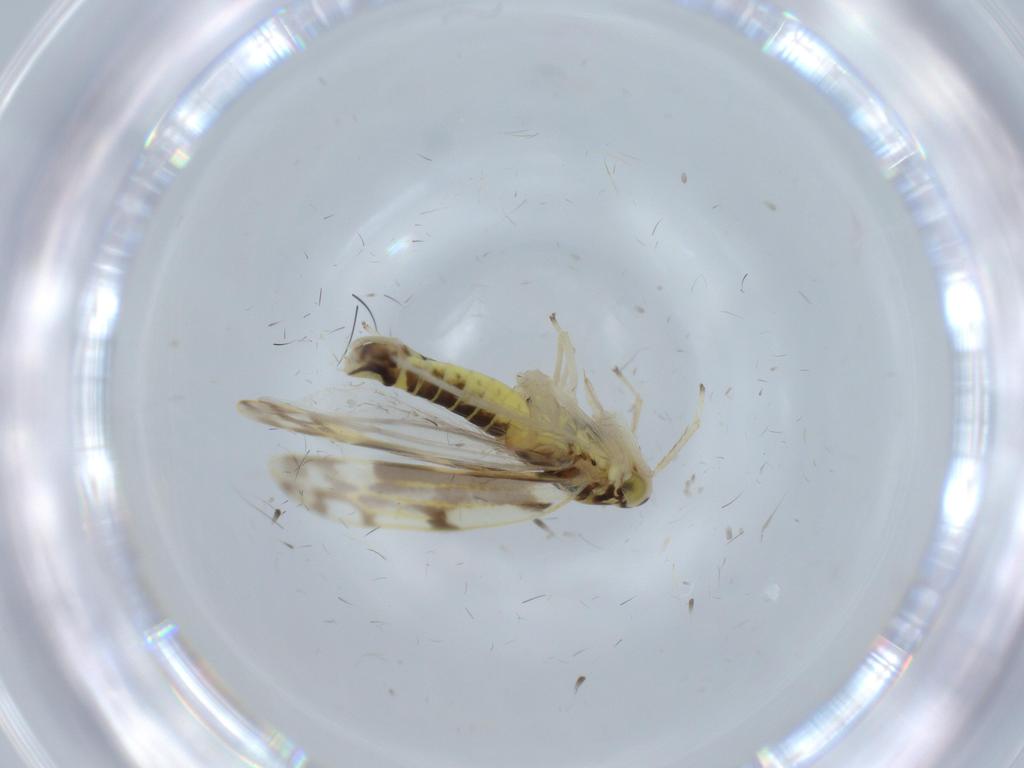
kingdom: Animalia
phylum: Arthropoda
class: Insecta
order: Hemiptera
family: Cicadellidae
